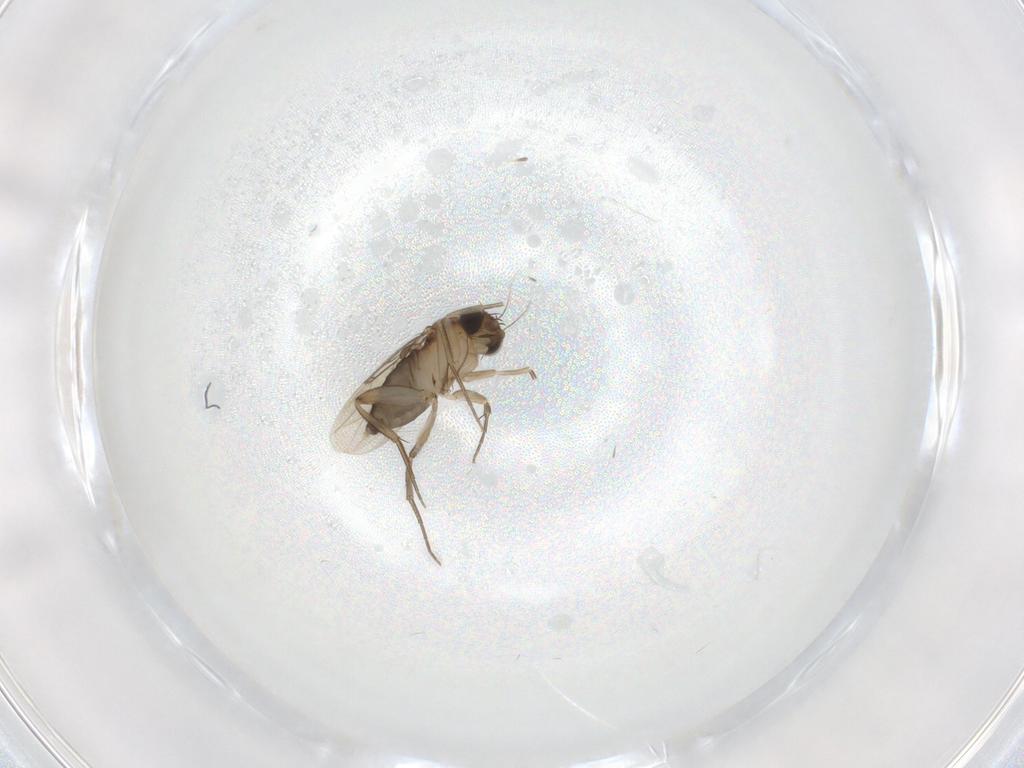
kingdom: Animalia
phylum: Arthropoda
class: Insecta
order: Diptera
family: Phoridae
